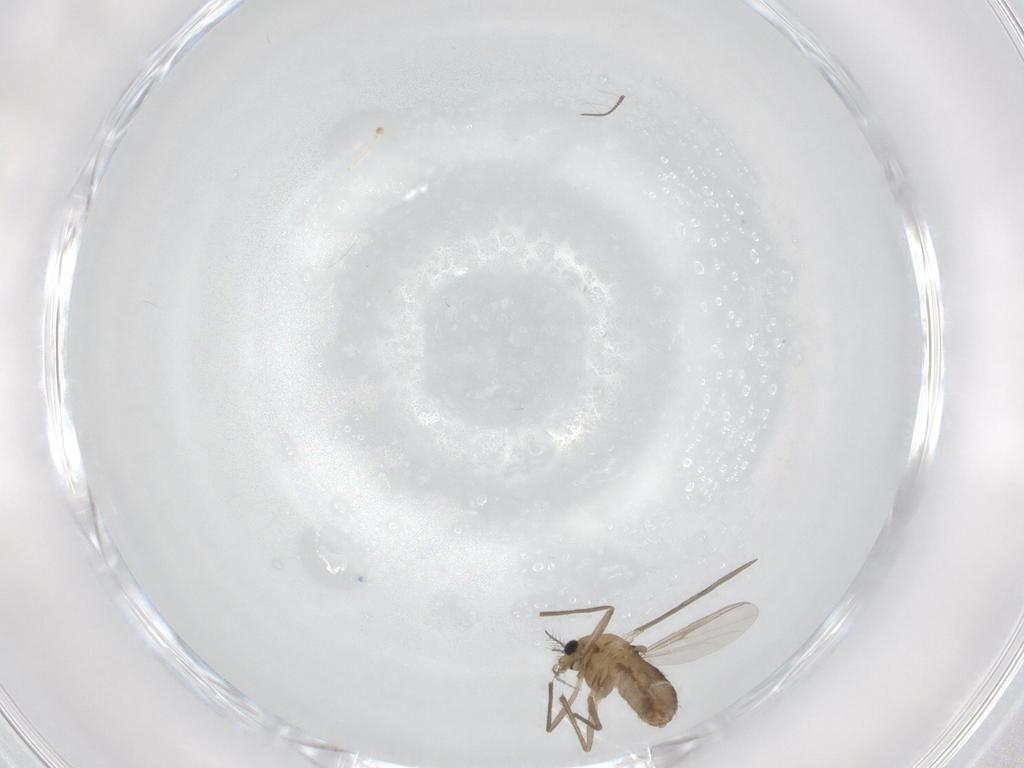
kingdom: Animalia
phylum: Arthropoda
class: Insecta
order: Diptera
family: Chironomidae
